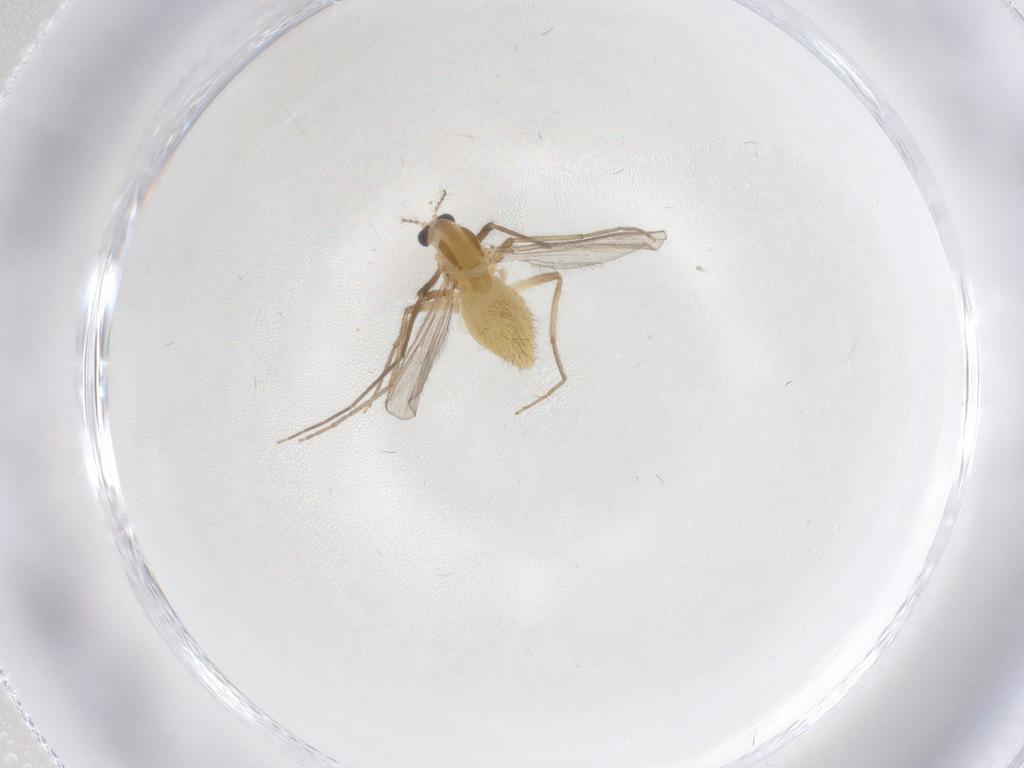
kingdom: Animalia
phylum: Arthropoda
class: Insecta
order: Diptera
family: Chironomidae
